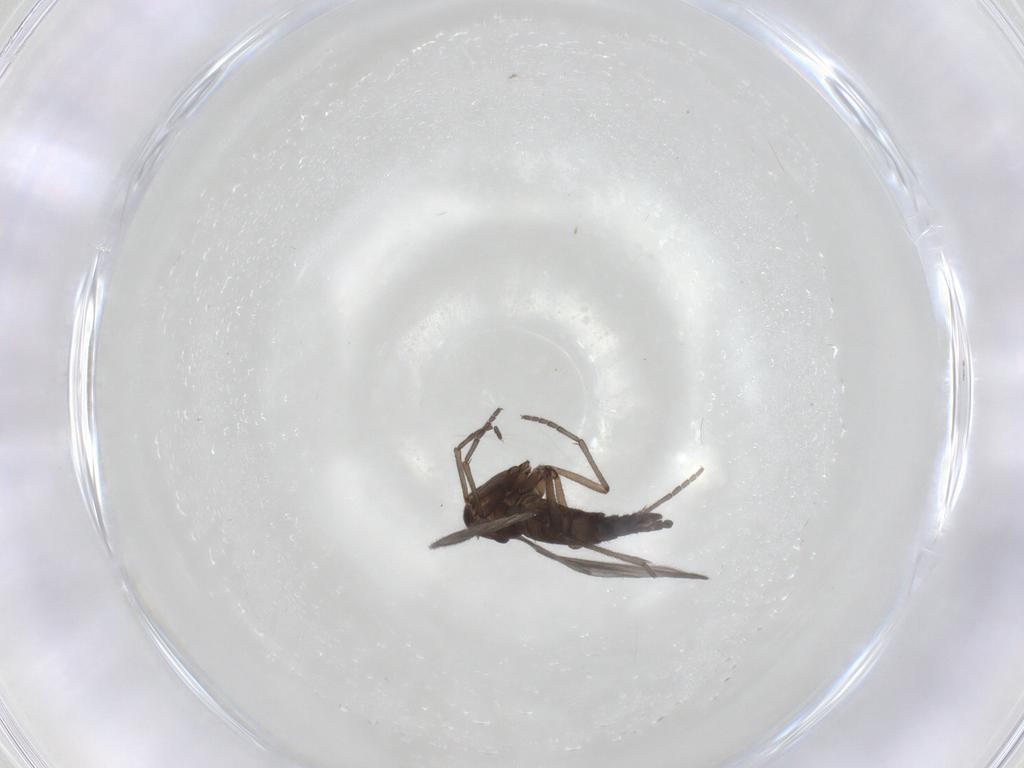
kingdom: Animalia
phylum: Arthropoda
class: Insecta
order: Diptera
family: Sciaridae
